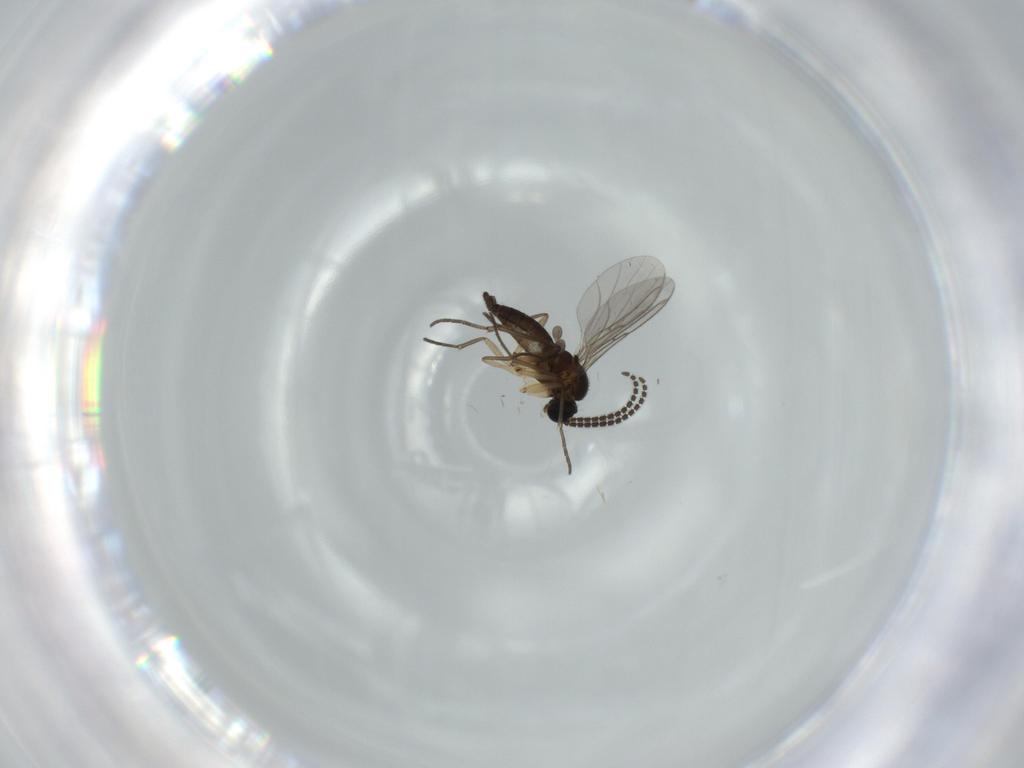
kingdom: Animalia
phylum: Arthropoda
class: Insecta
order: Diptera
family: Sciaridae
